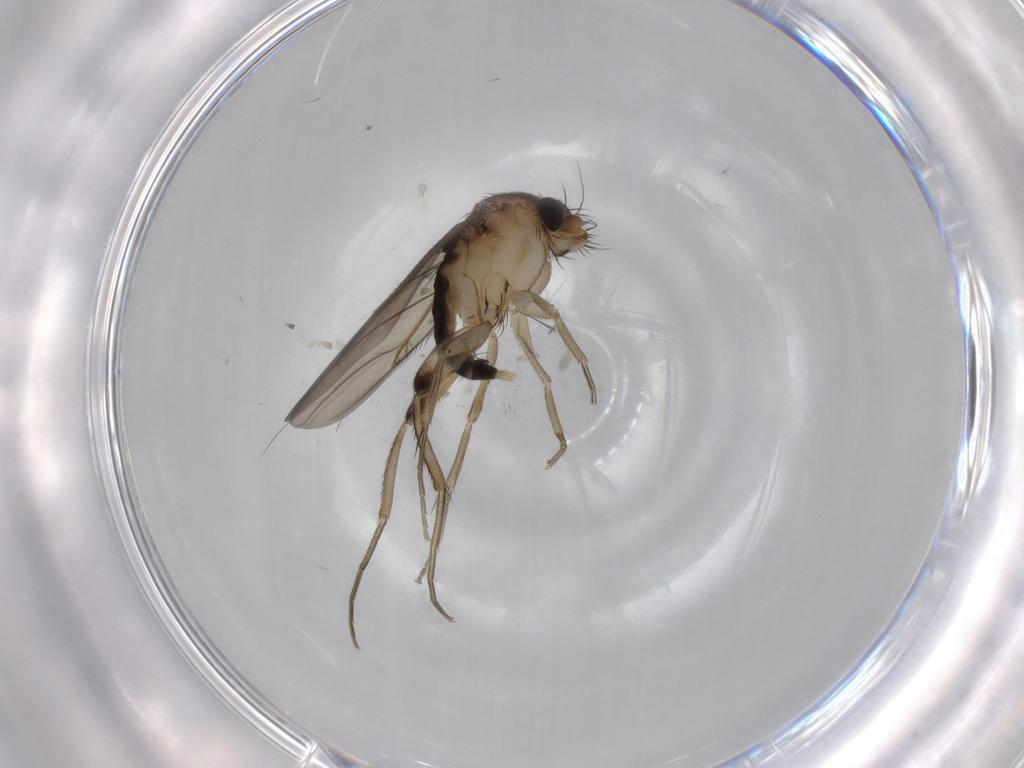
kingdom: Animalia
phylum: Arthropoda
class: Insecta
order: Diptera
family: Phoridae
